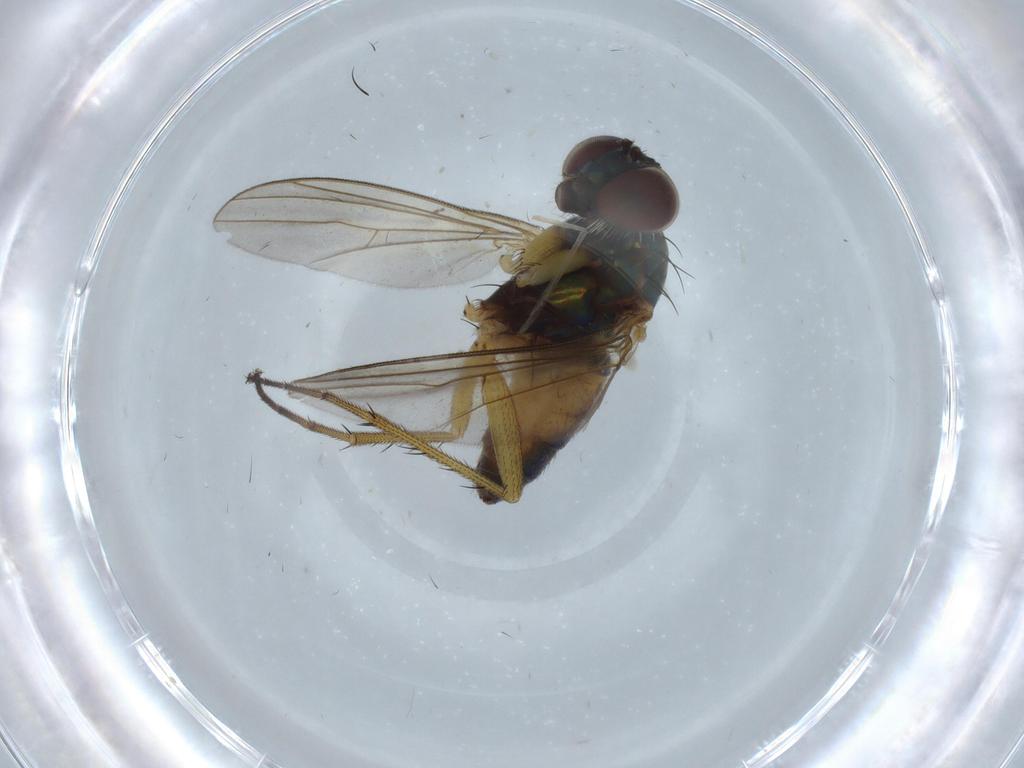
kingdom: Animalia
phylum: Arthropoda
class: Insecta
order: Diptera
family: Dolichopodidae
